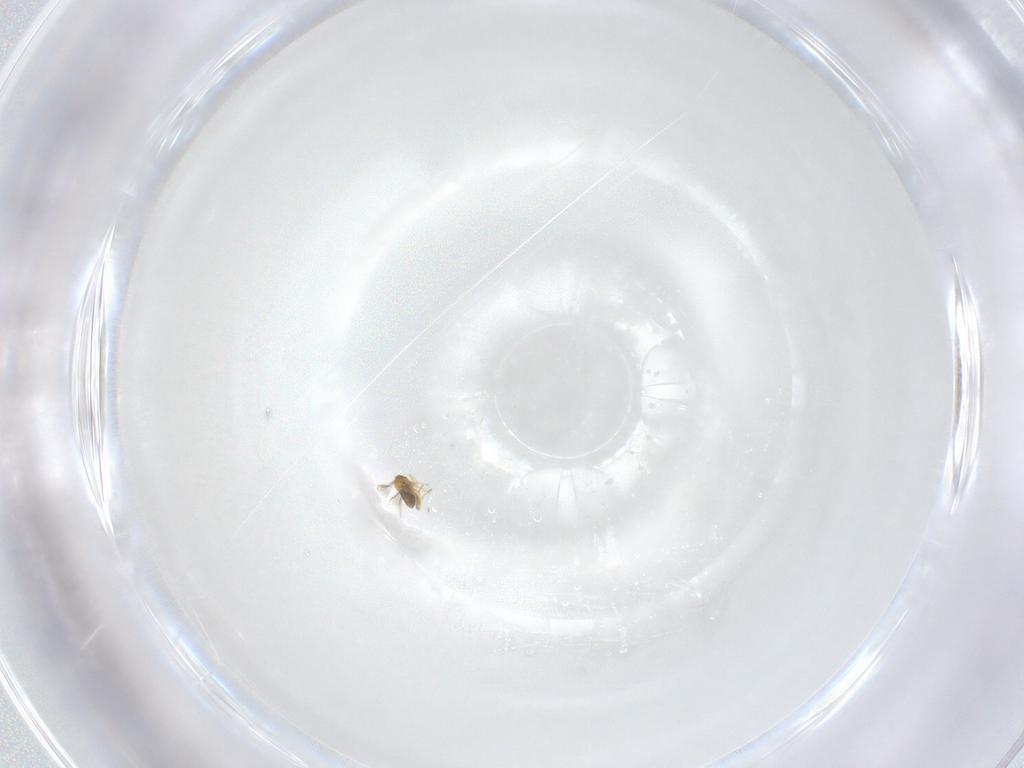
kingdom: Animalia
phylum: Arthropoda
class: Insecta
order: Hymenoptera
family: Trichogrammatidae
